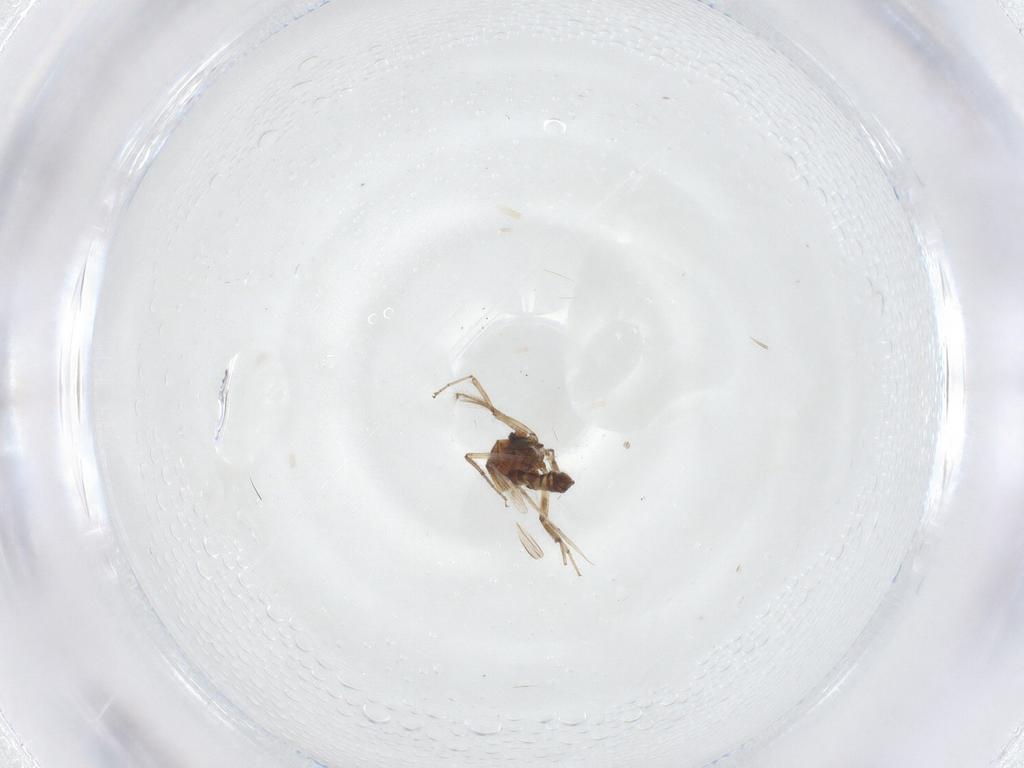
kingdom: Animalia
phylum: Arthropoda
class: Insecta
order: Diptera
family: Ceratopogonidae
